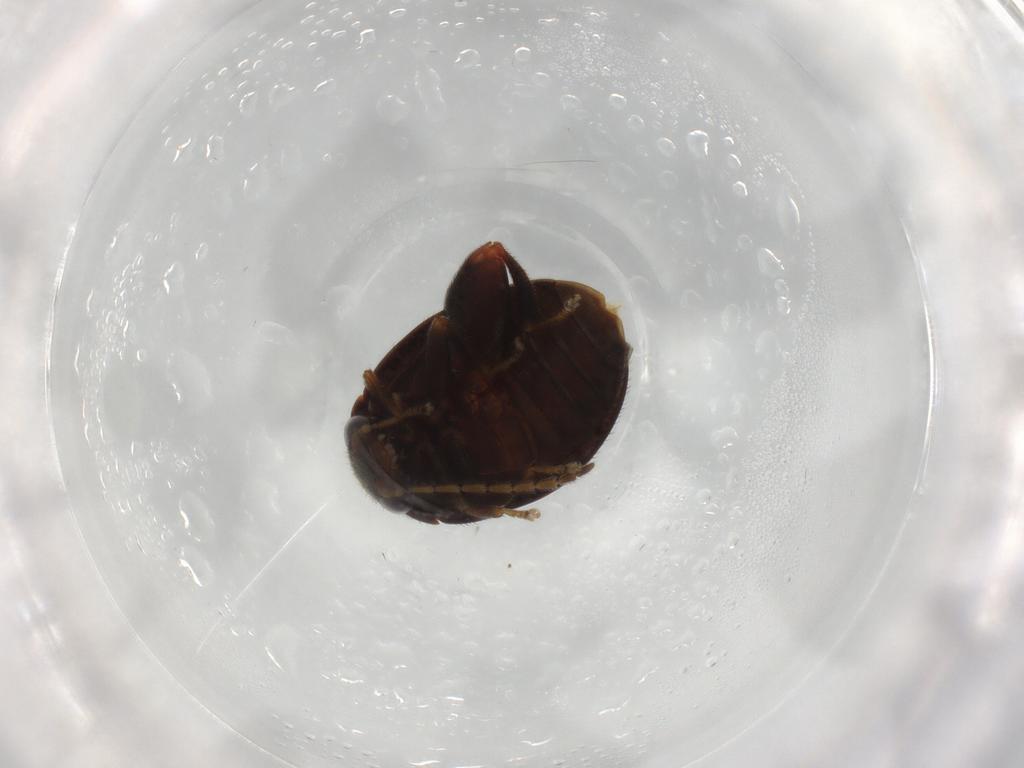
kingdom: Animalia
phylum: Arthropoda
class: Insecta
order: Coleoptera
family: Scirtidae
